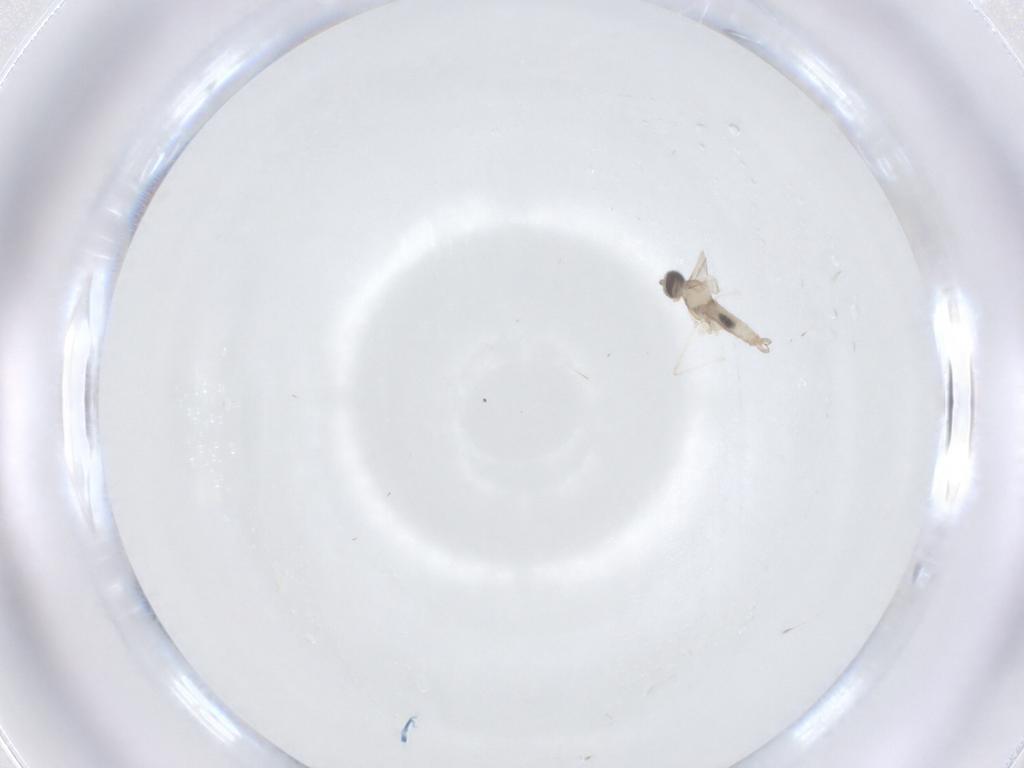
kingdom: Animalia
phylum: Arthropoda
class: Insecta
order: Diptera
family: Cecidomyiidae
